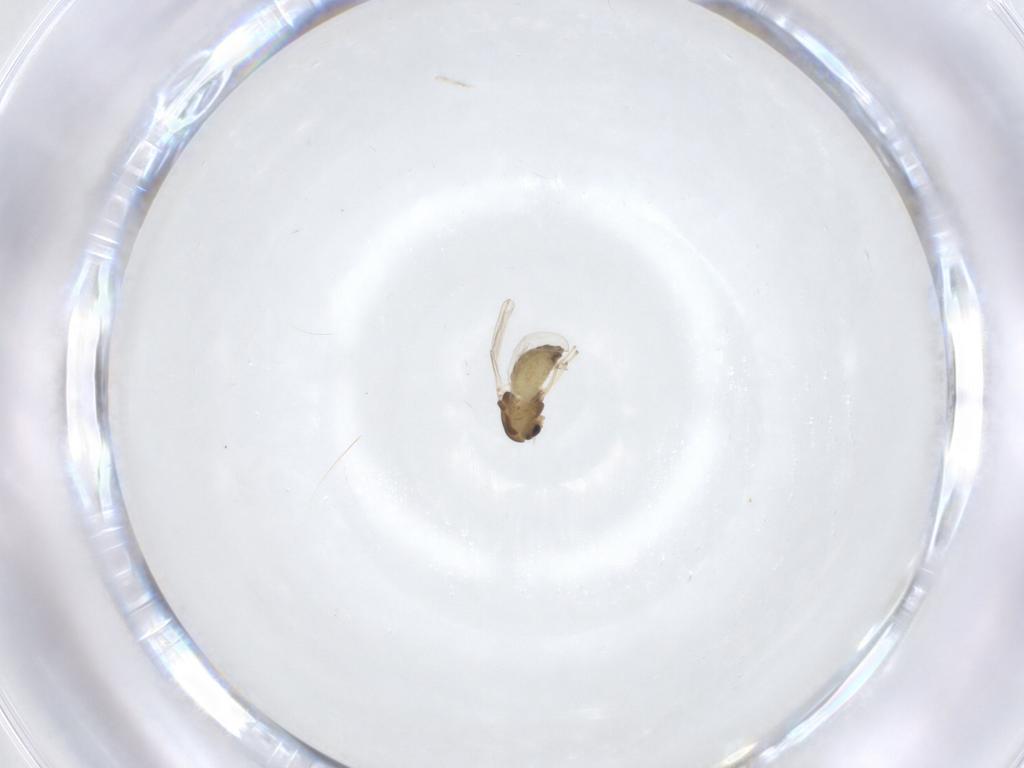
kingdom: Animalia
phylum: Arthropoda
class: Insecta
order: Diptera
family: Chironomidae
